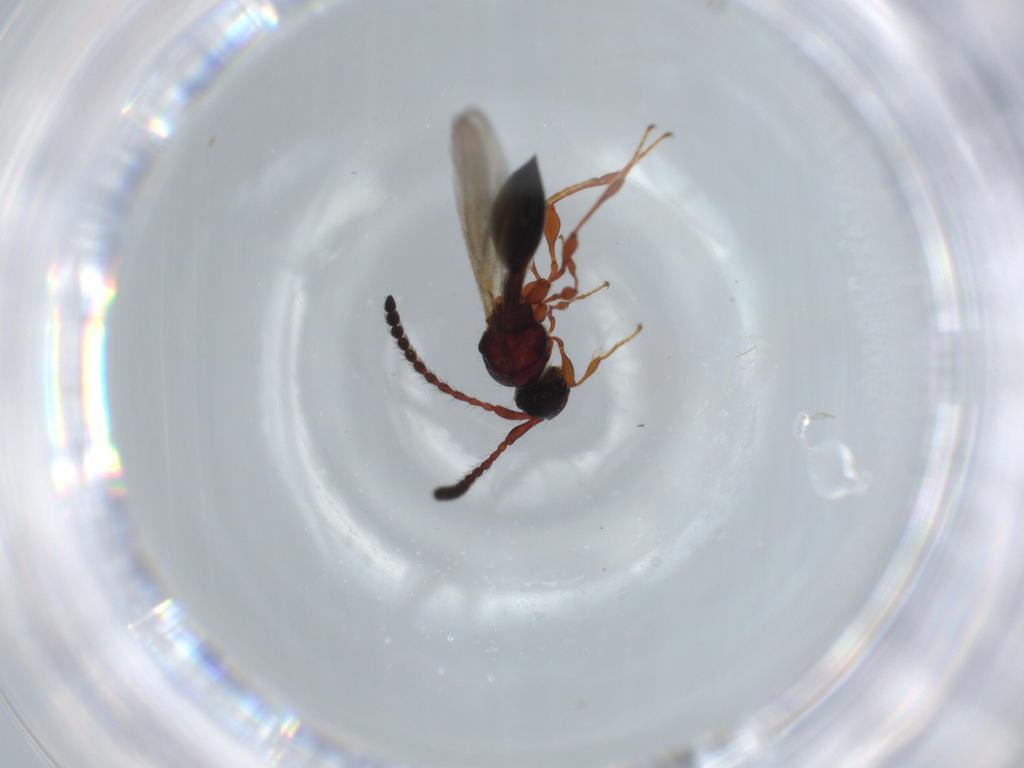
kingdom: Animalia
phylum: Arthropoda
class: Insecta
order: Hymenoptera
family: Diapriidae
